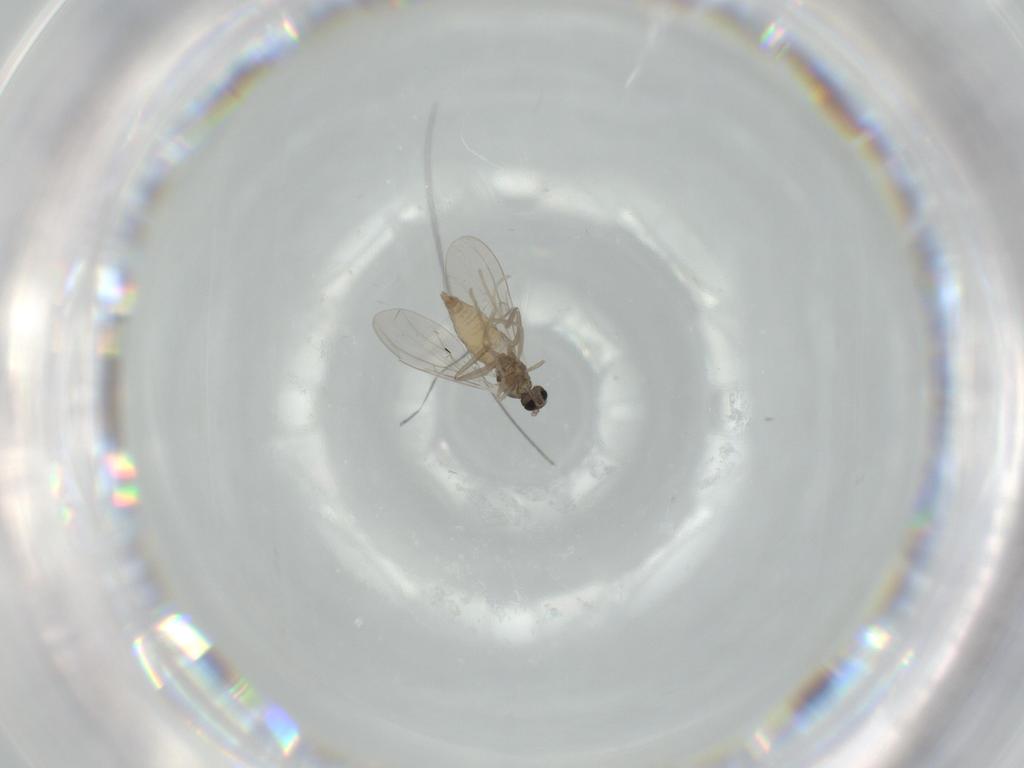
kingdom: Animalia
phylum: Arthropoda
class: Insecta
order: Diptera
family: Cecidomyiidae
